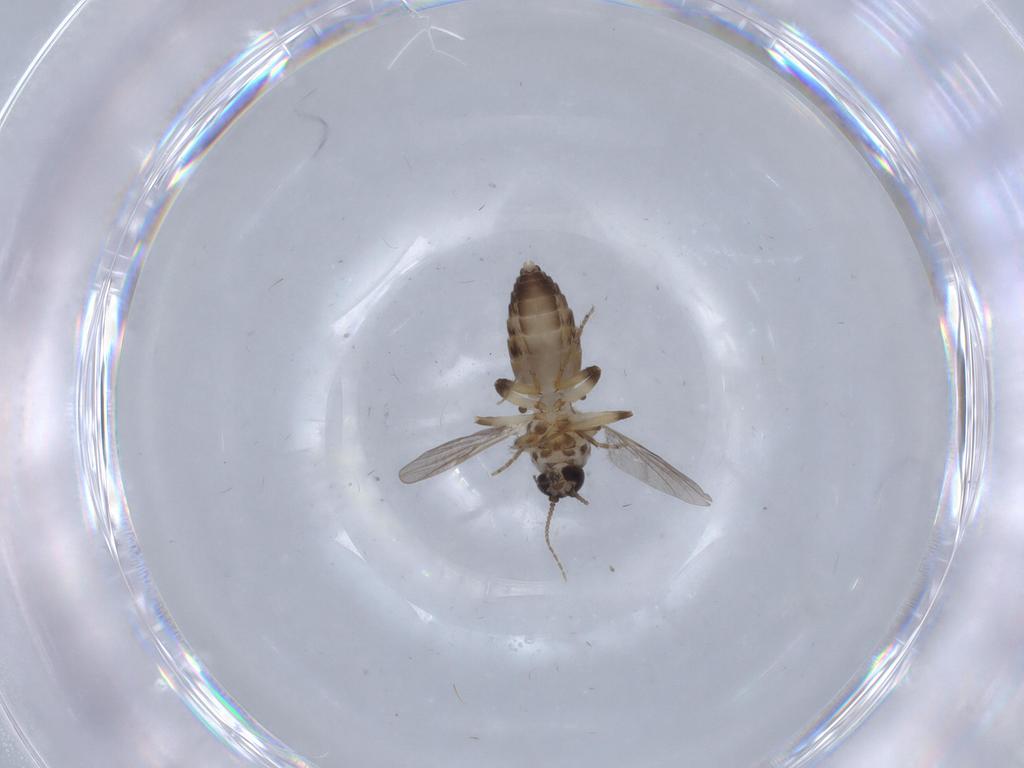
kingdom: Animalia
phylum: Arthropoda
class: Insecta
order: Diptera
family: Ceratopogonidae
